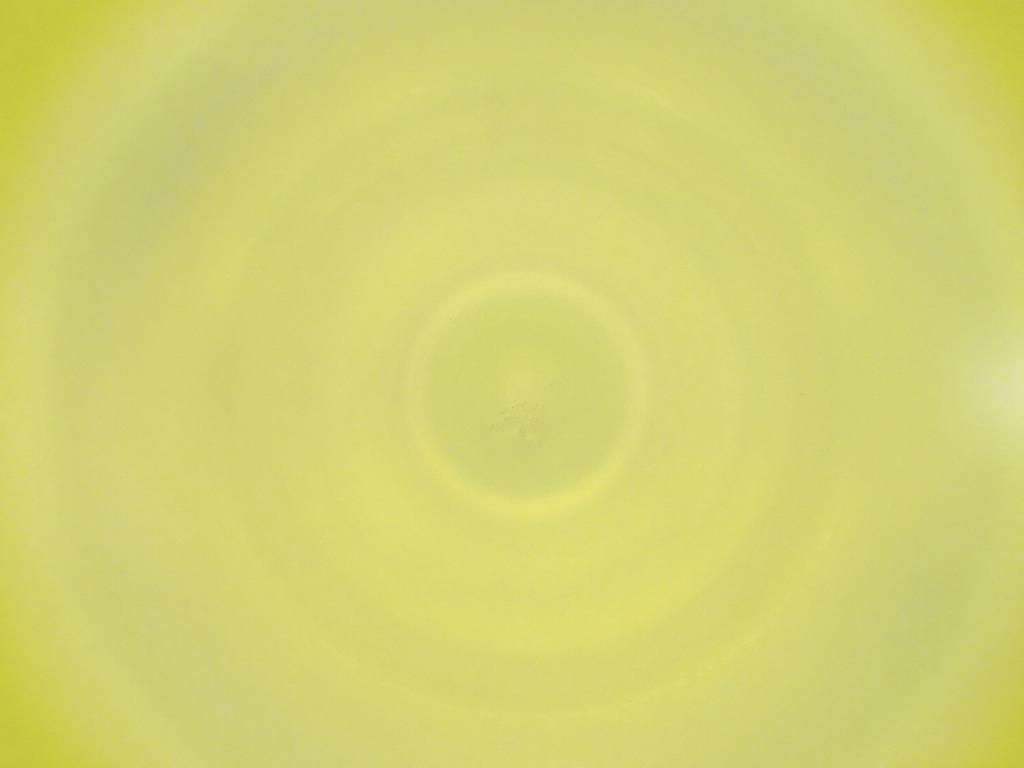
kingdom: Animalia
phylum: Arthropoda
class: Insecta
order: Diptera
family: Cecidomyiidae
